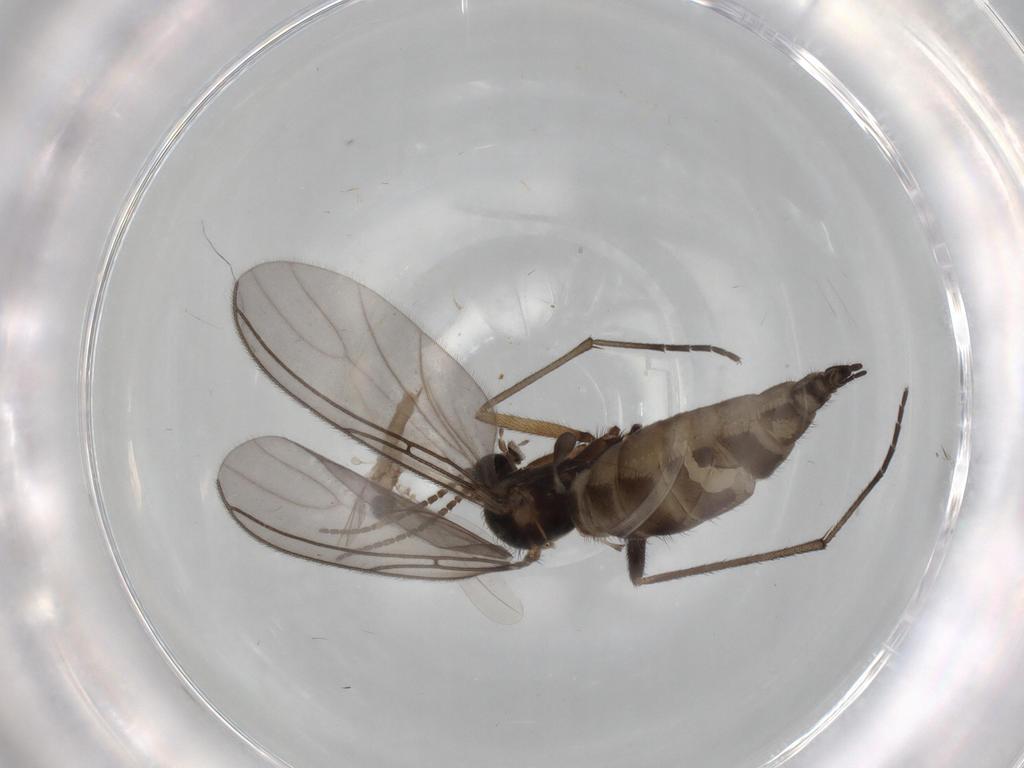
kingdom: Animalia
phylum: Arthropoda
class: Insecta
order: Diptera
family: Sciaridae
